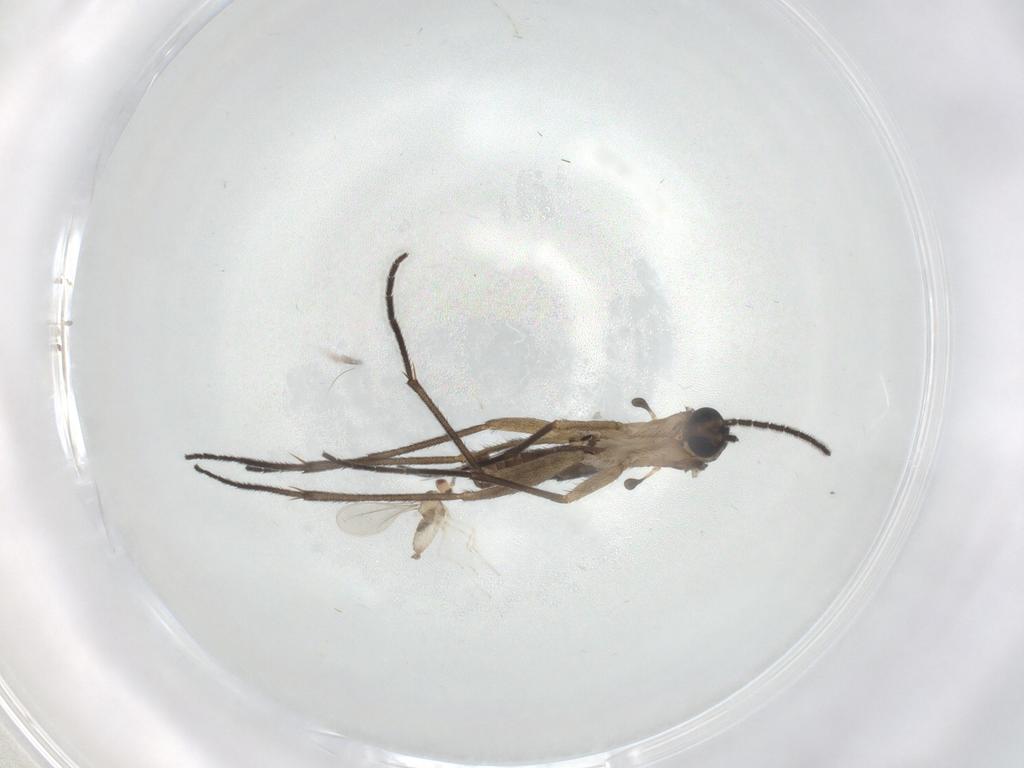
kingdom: Animalia
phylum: Arthropoda
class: Insecta
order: Diptera
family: Cecidomyiidae
